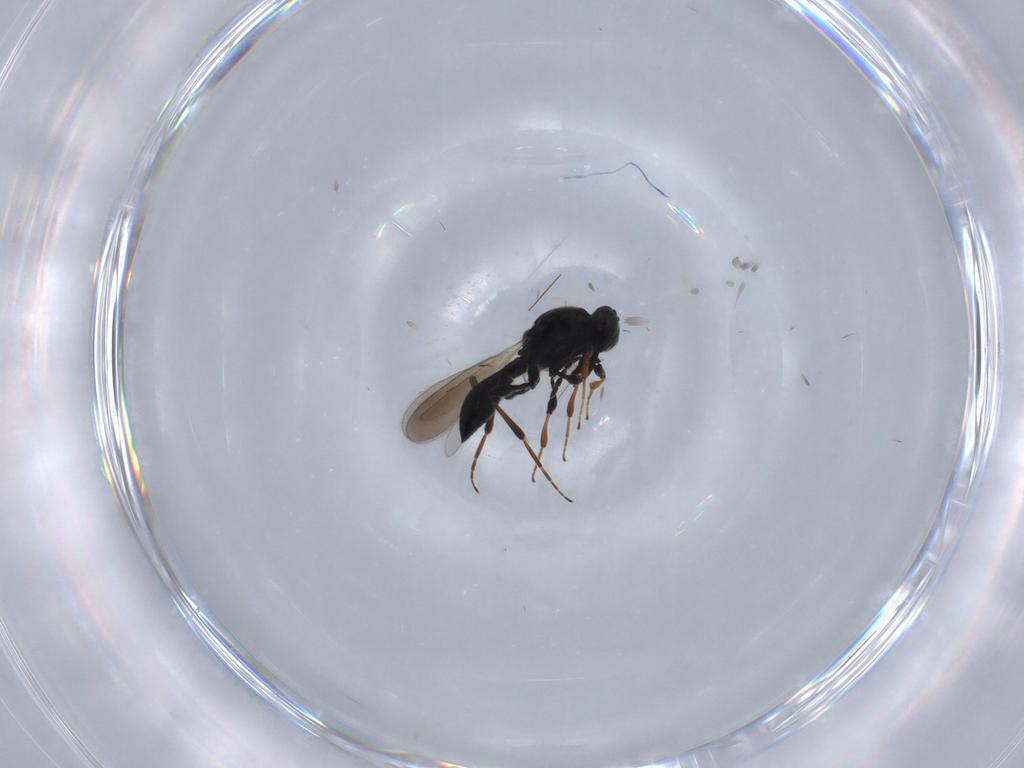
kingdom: Animalia
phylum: Arthropoda
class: Insecta
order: Hymenoptera
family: Platygastridae
